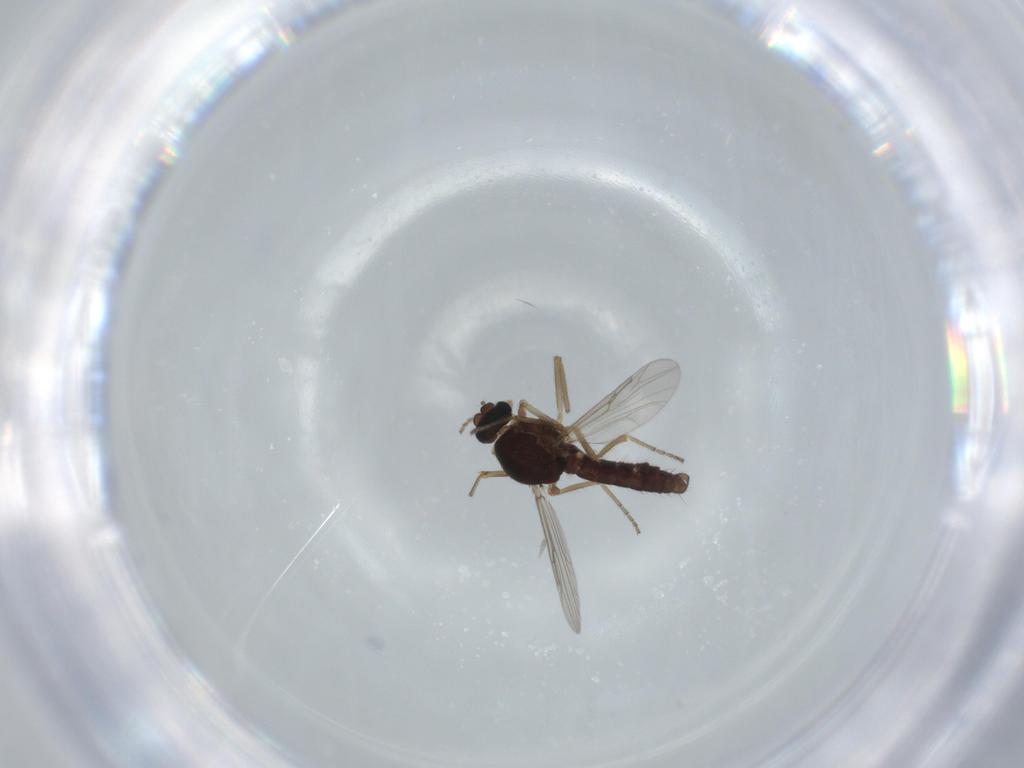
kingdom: Animalia
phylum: Arthropoda
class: Insecta
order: Diptera
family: Ceratopogonidae
